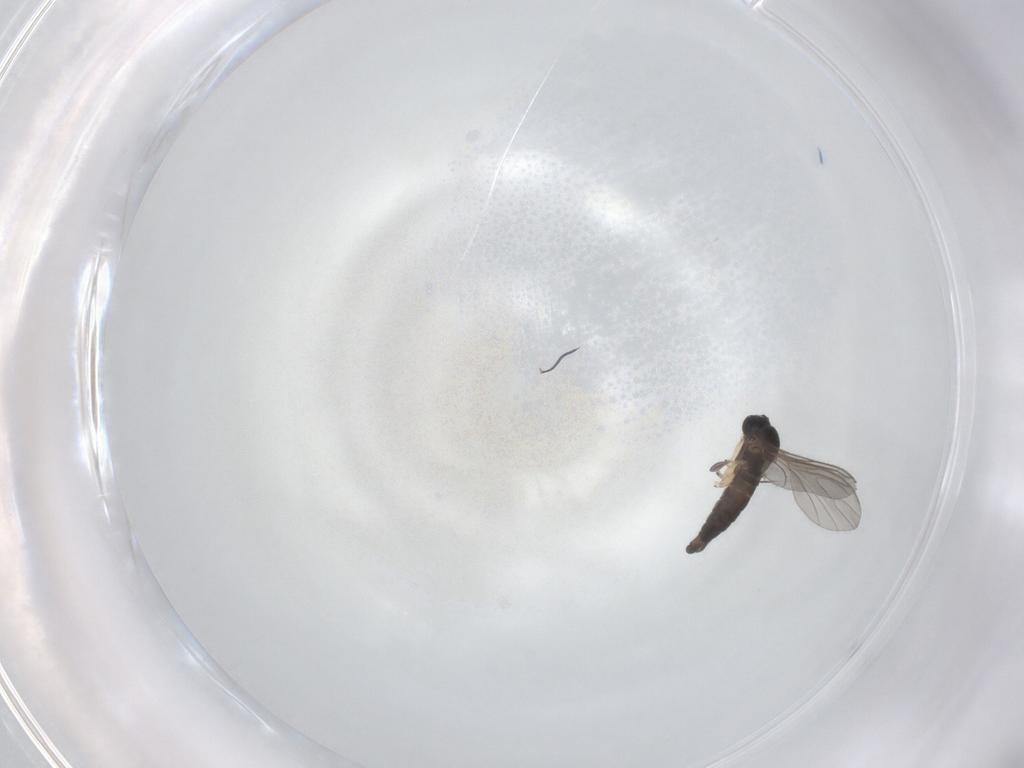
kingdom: Animalia
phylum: Arthropoda
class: Insecta
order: Diptera
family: Sciaridae
